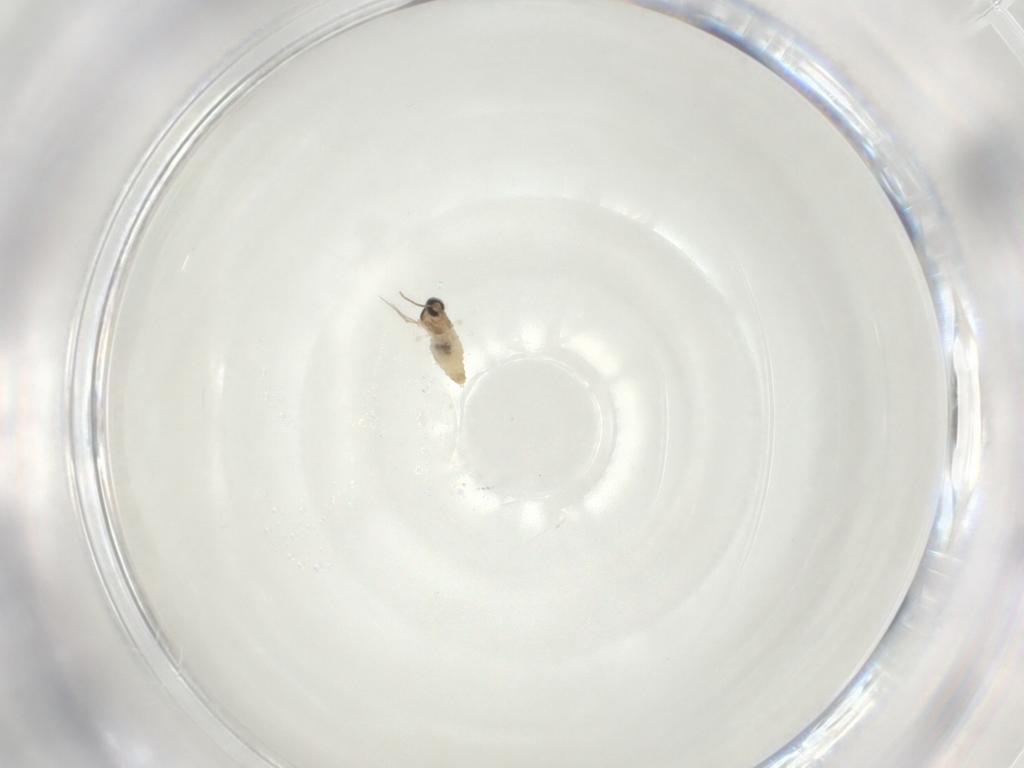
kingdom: Animalia
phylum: Arthropoda
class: Insecta
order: Diptera
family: Cecidomyiidae
